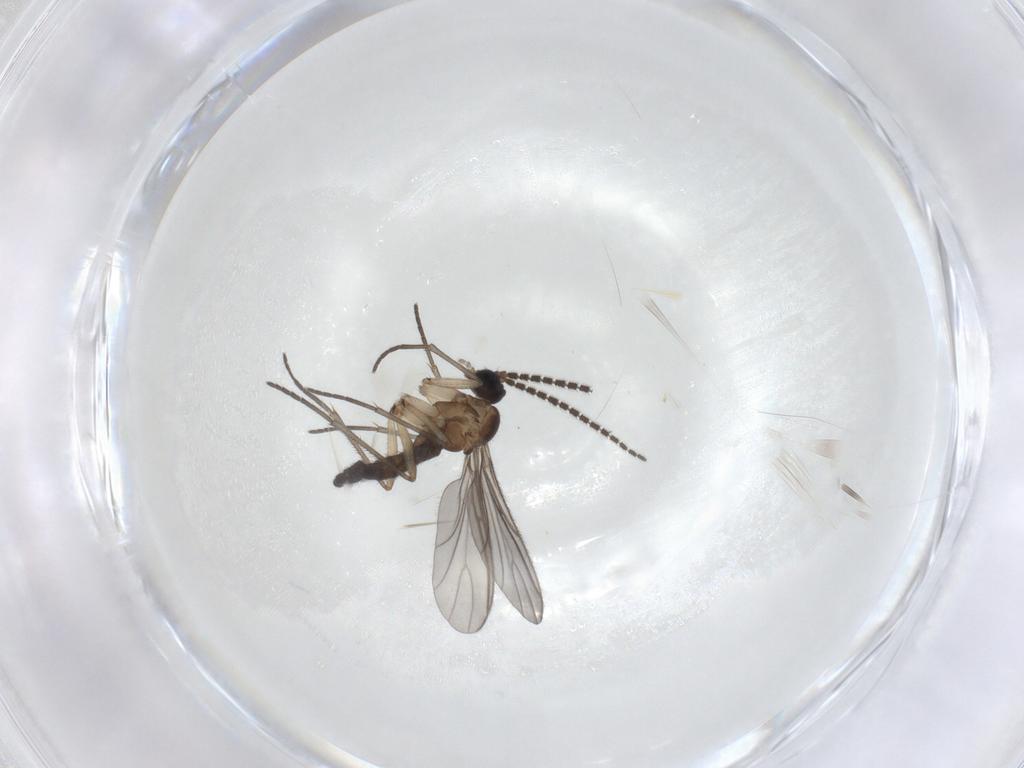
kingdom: Animalia
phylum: Arthropoda
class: Insecta
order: Diptera
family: Sciaridae
